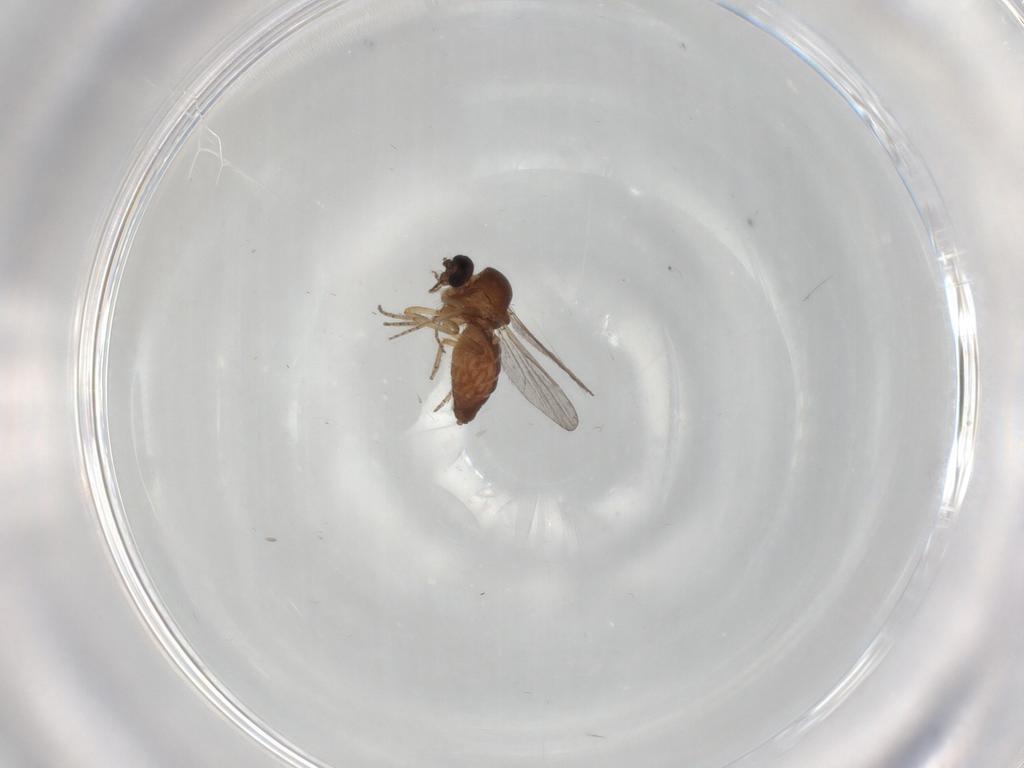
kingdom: Animalia
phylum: Arthropoda
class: Insecta
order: Diptera
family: Ceratopogonidae
